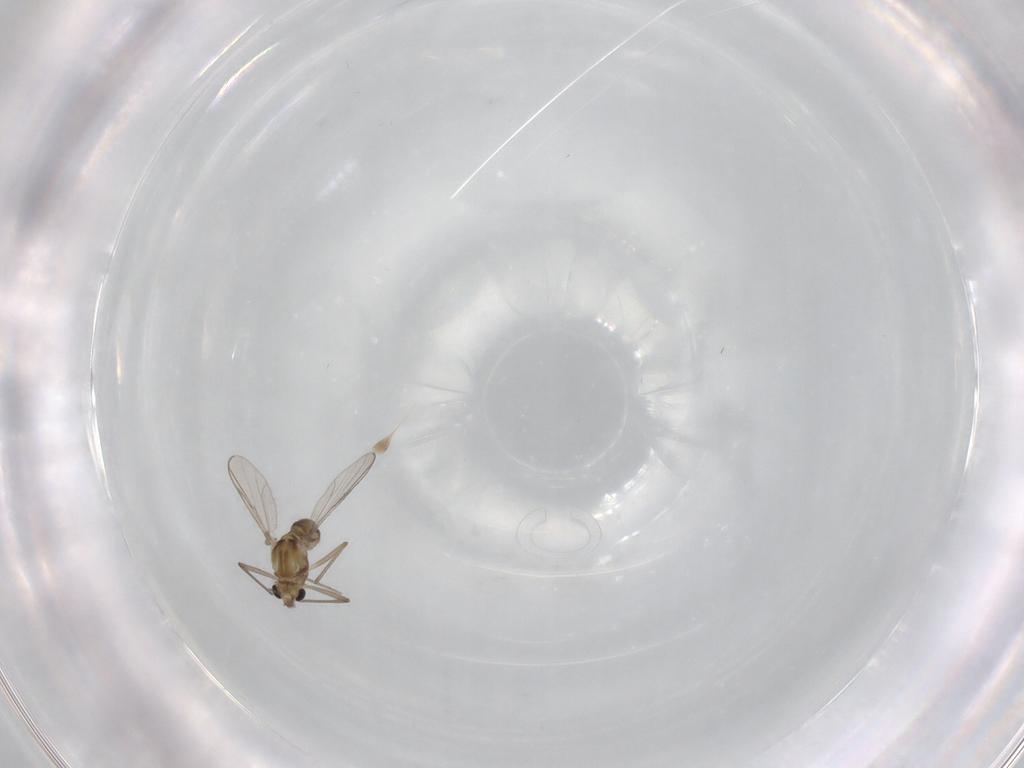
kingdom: Animalia
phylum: Arthropoda
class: Insecta
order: Diptera
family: Chironomidae
